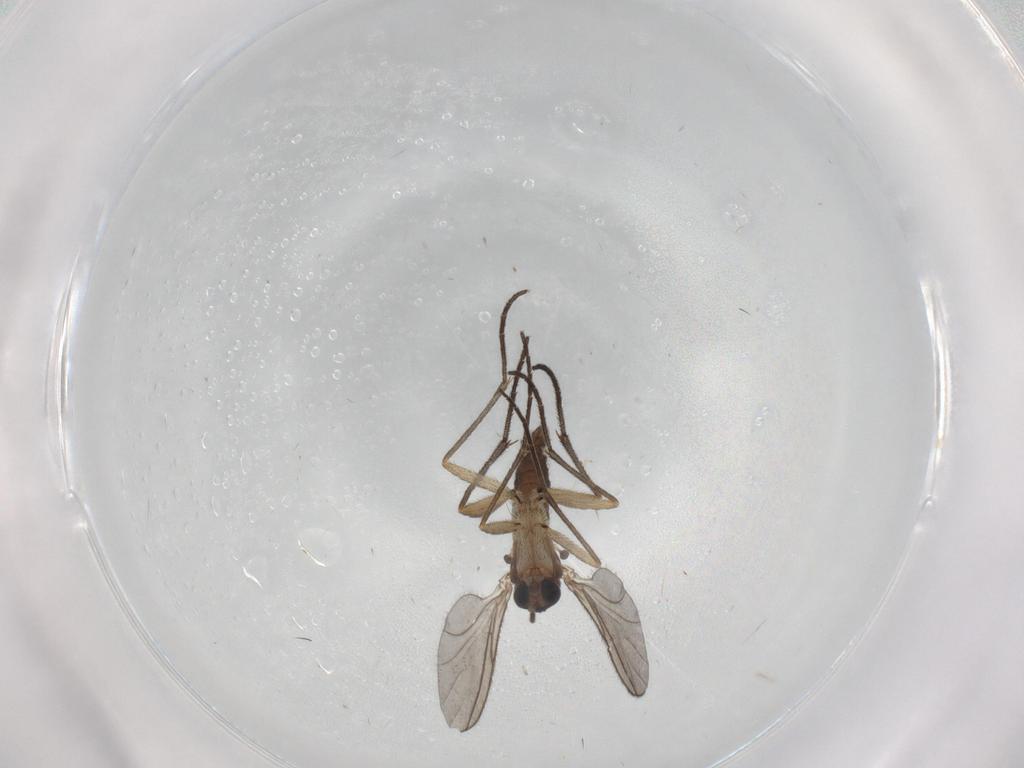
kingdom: Animalia
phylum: Arthropoda
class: Insecta
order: Diptera
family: Sciaridae
